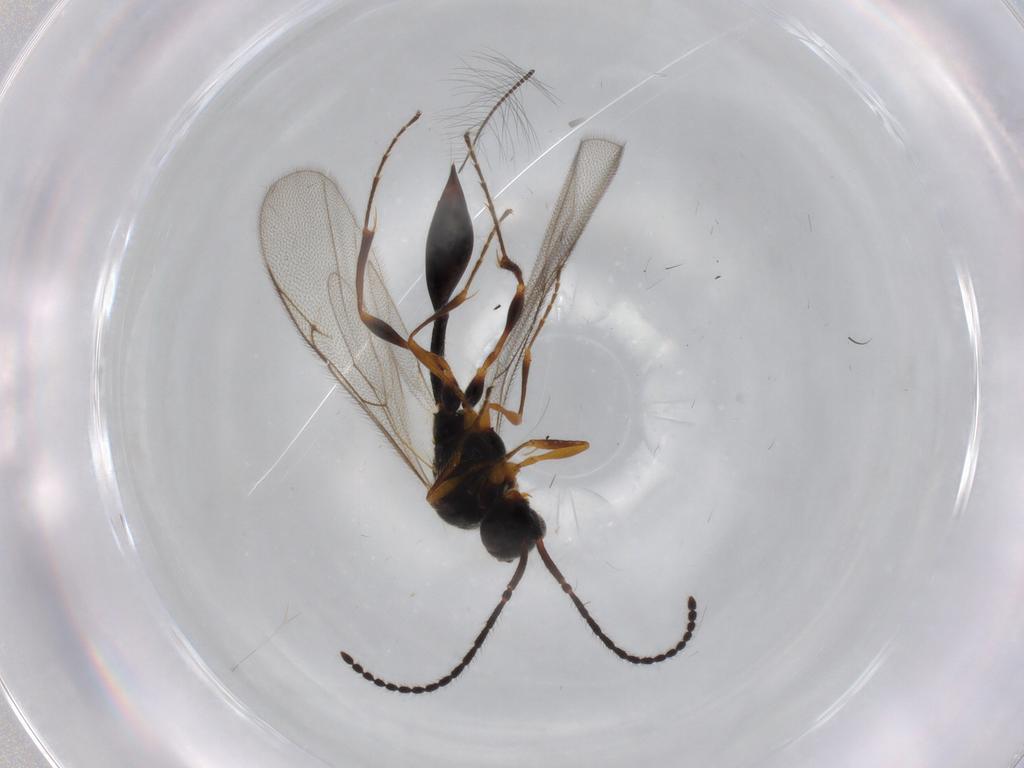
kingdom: Animalia
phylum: Arthropoda
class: Insecta
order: Hymenoptera
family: Diapriidae
